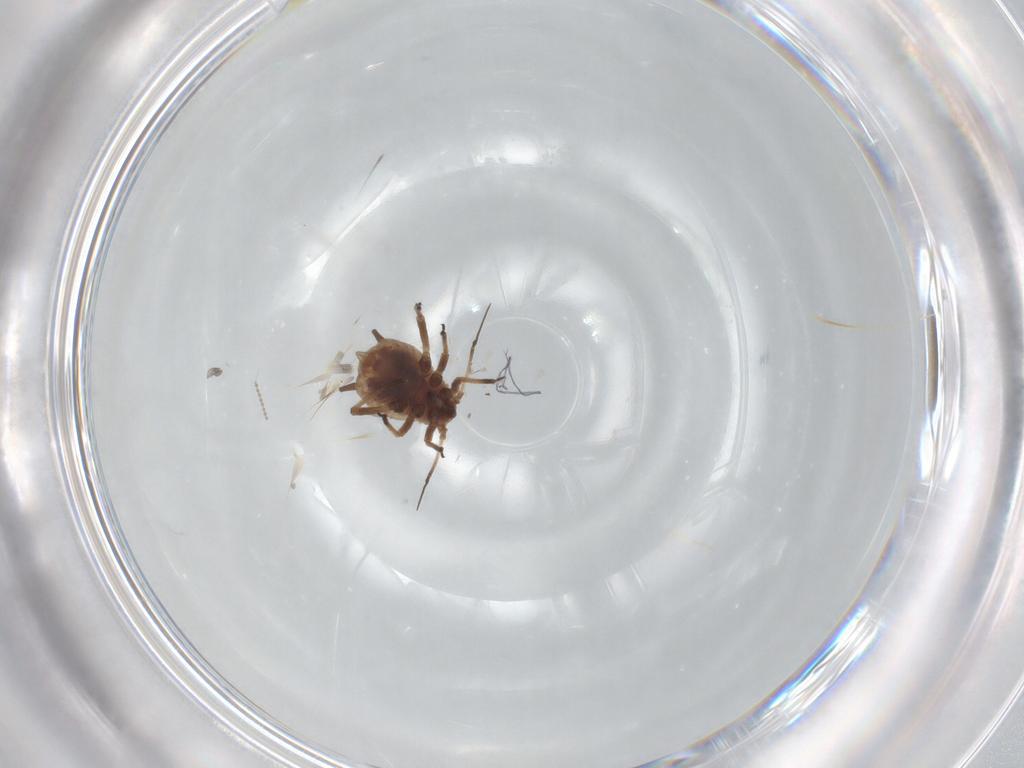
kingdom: Animalia
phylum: Arthropoda
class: Insecta
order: Hemiptera
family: Aphididae
